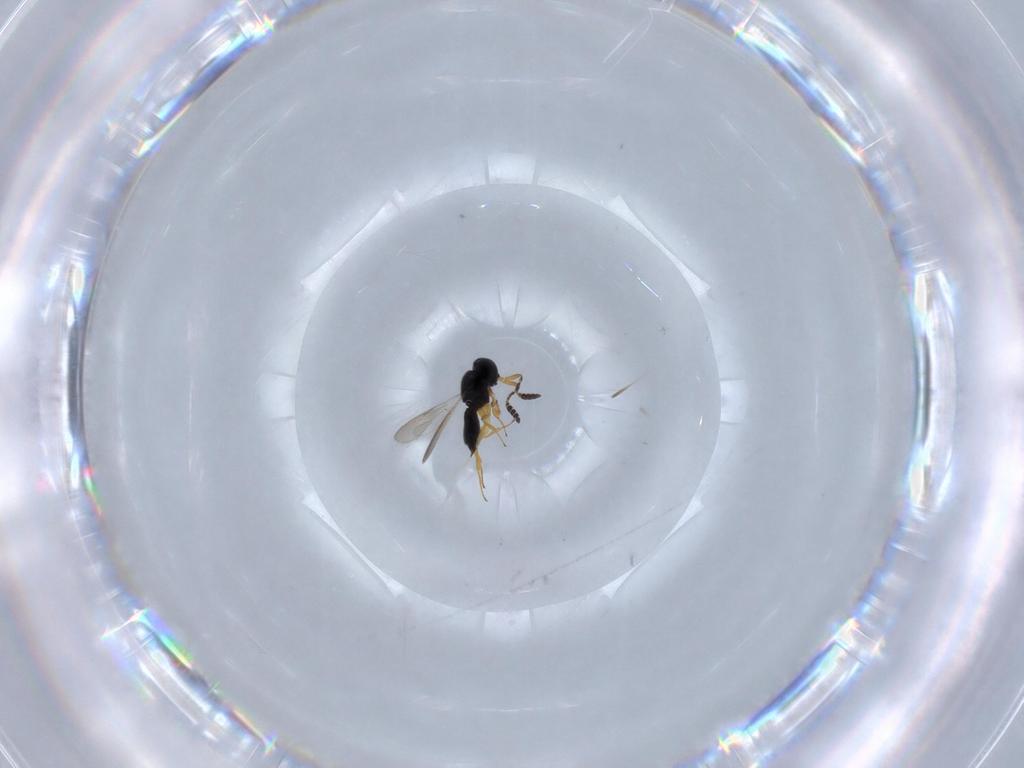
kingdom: Animalia
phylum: Arthropoda
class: Insecta
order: Hymenoptera
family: Scelionidae
